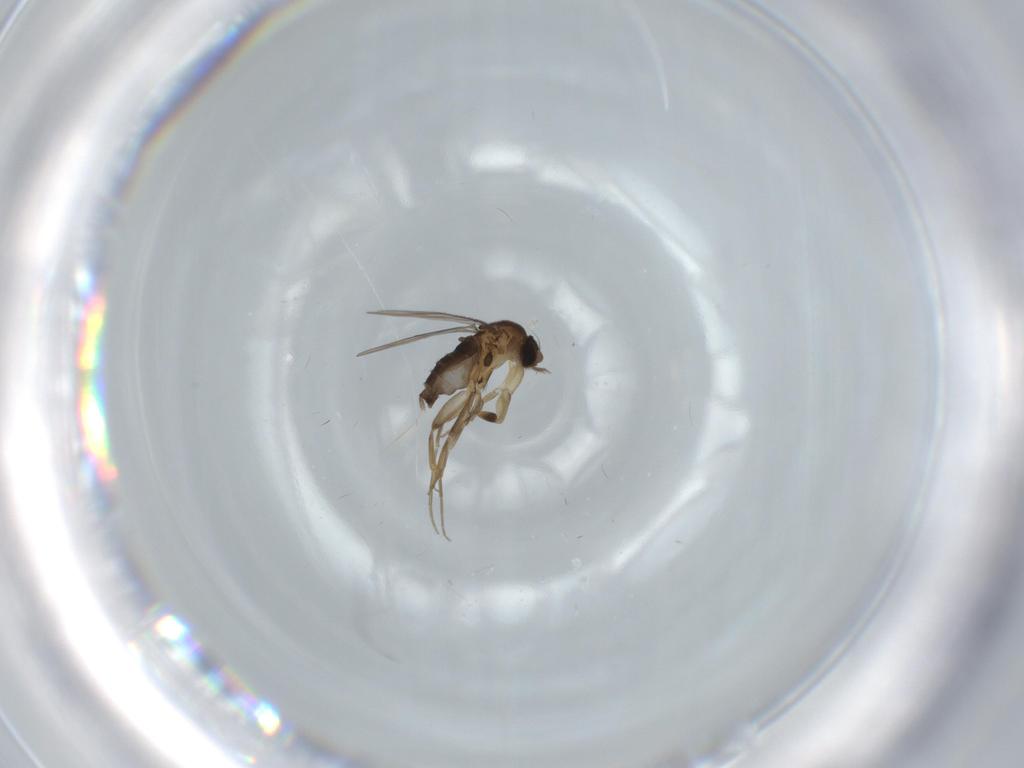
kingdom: Animalia
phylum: Arthropoda
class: Insecta
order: Diptera
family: Phoridae
